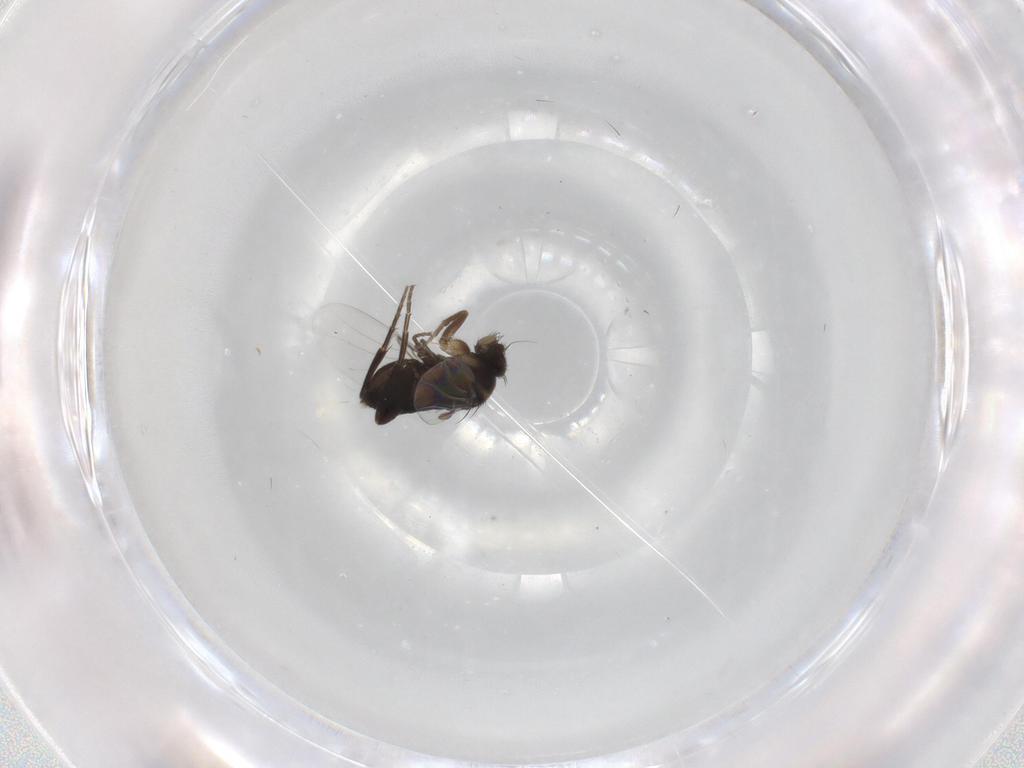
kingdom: Animalia
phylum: Arthropoda
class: Insecta
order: Diptera
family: Phoridae
